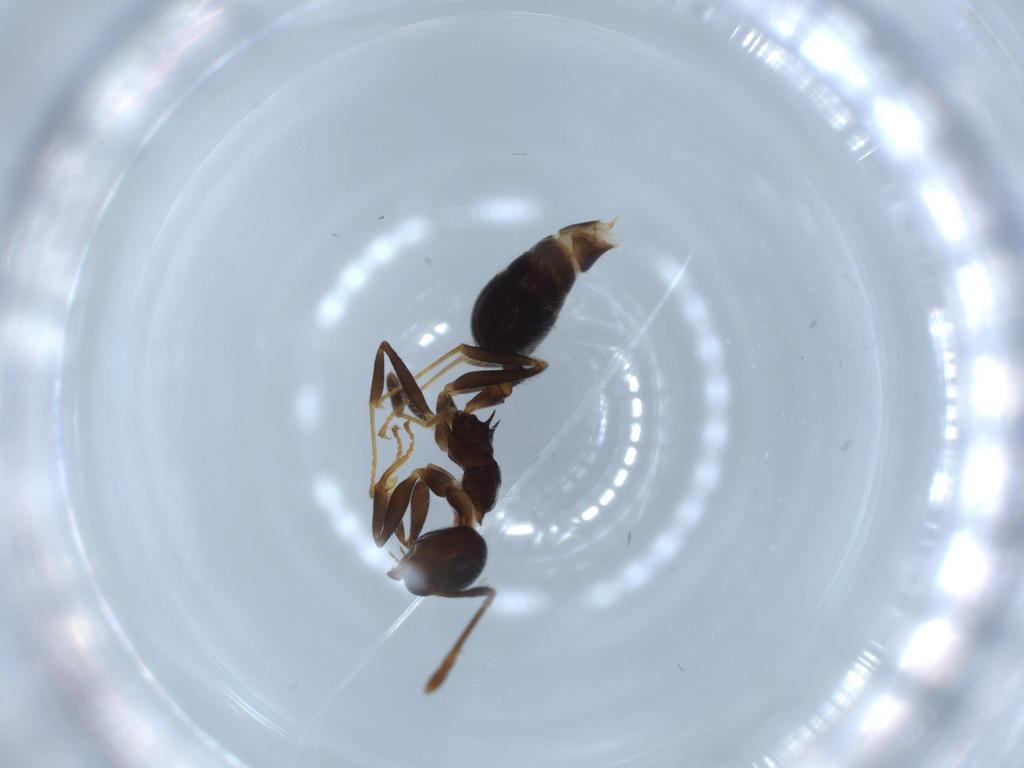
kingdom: Animalia
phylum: Arthropoda
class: Insecta
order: Hymenoptera
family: Formicidae
